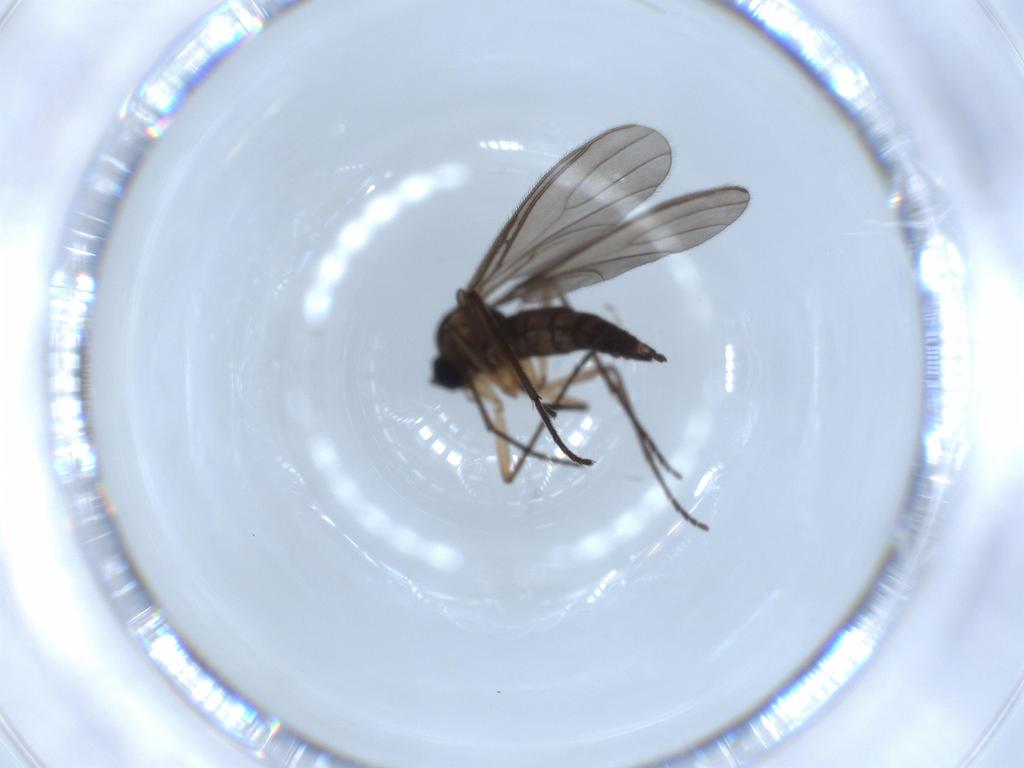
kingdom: Animalia
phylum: Arthropoda
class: Insecta
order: Diptera
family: Sciaridae
